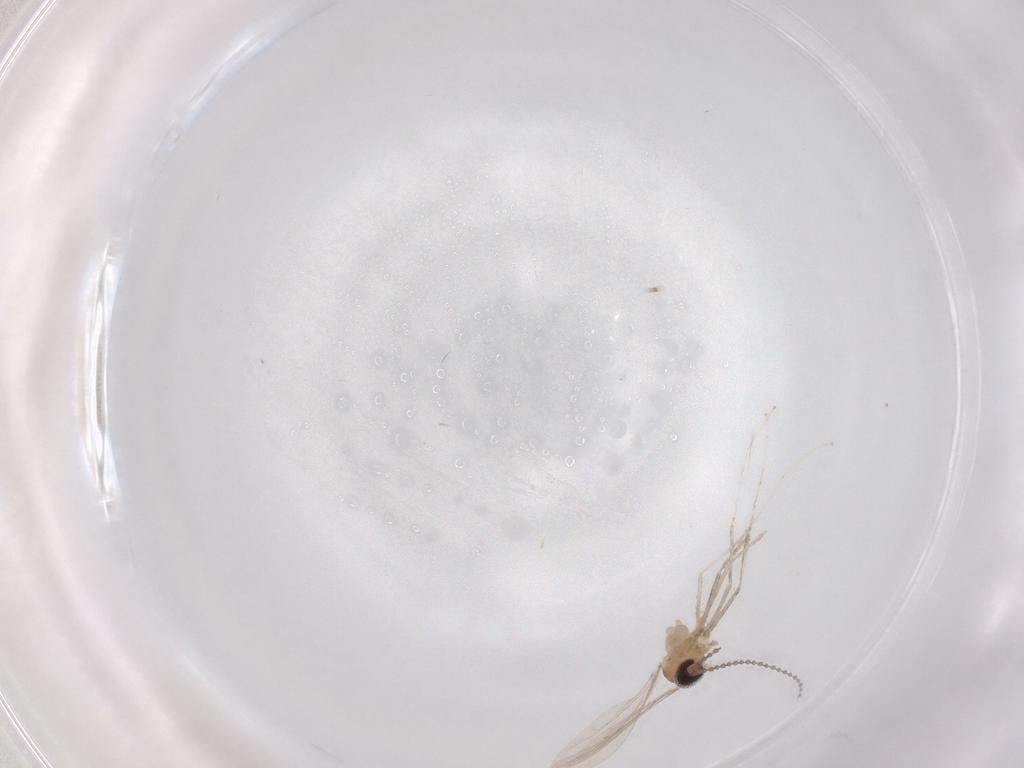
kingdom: Animalia
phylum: Arthropoda
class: Insecta
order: Diptera
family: Cecidomyiidae
